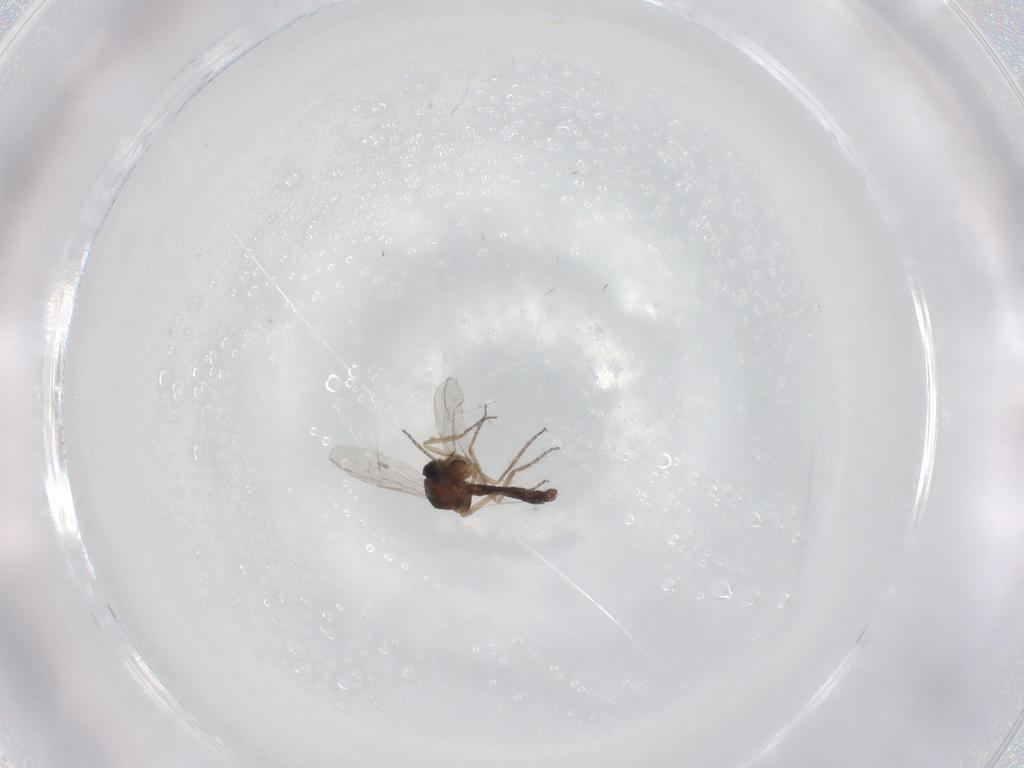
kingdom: Animalia
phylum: Arthropoda
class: Insecta
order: Diptera
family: Ceratopogonidae
